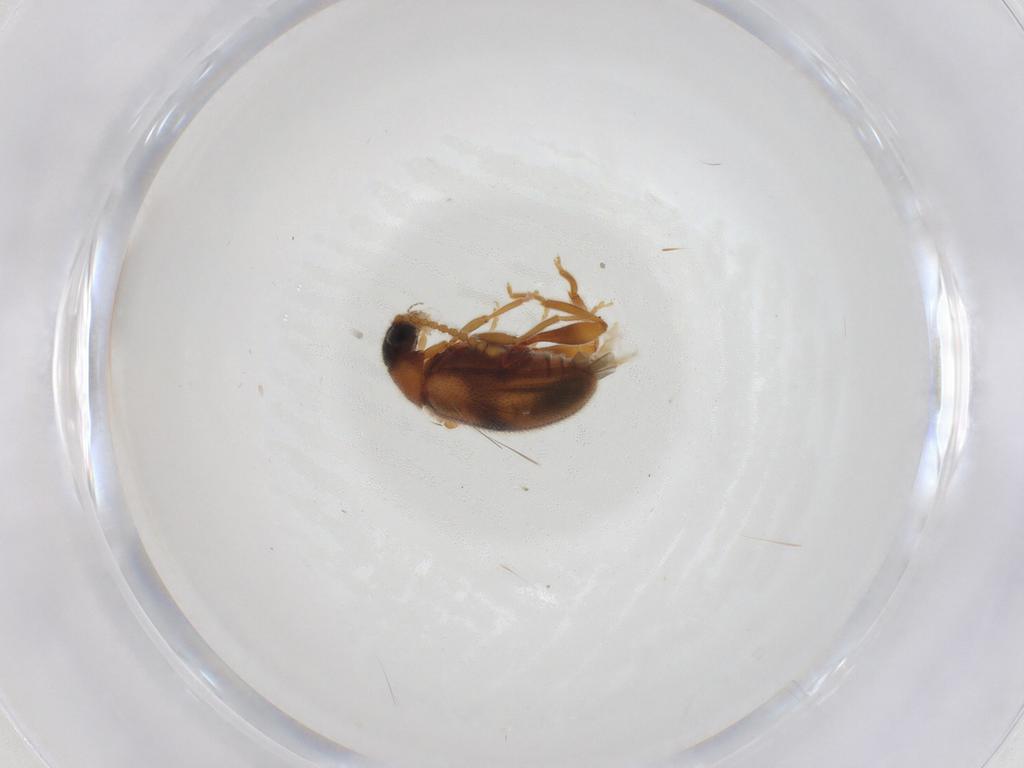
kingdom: Animalia
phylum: Arthropoda
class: Insecta
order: Coleoptera
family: Aderidae
